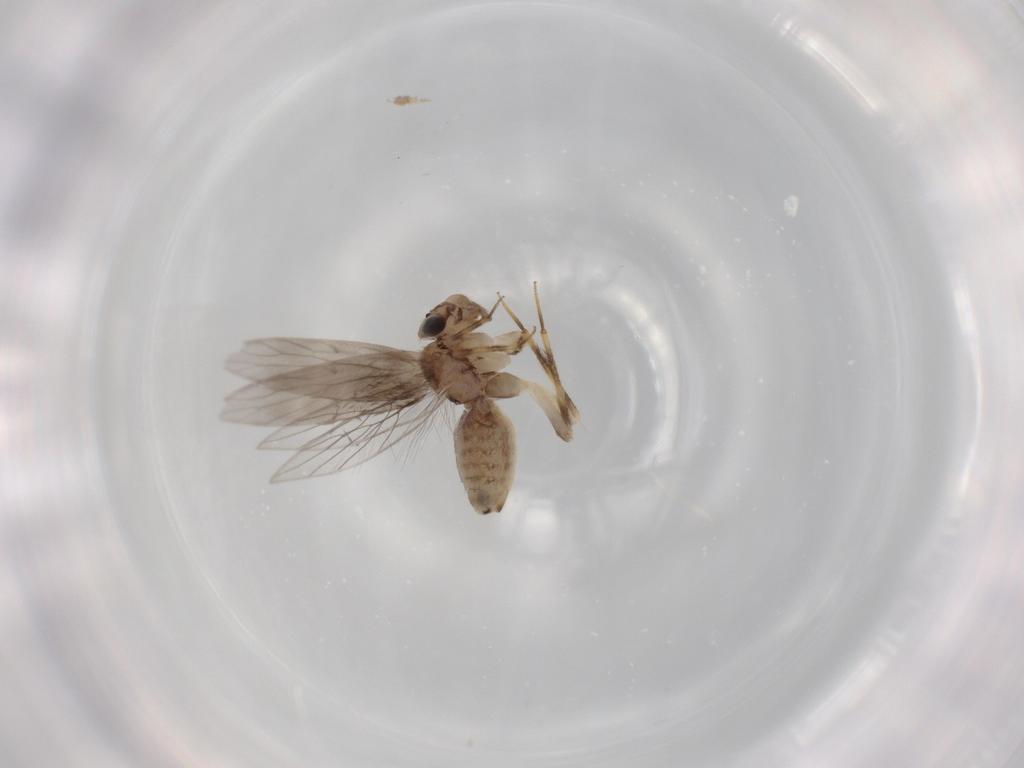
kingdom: Animalia
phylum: Arthropoda
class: Insecta
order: Psocodea
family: Lepidopsocidae
